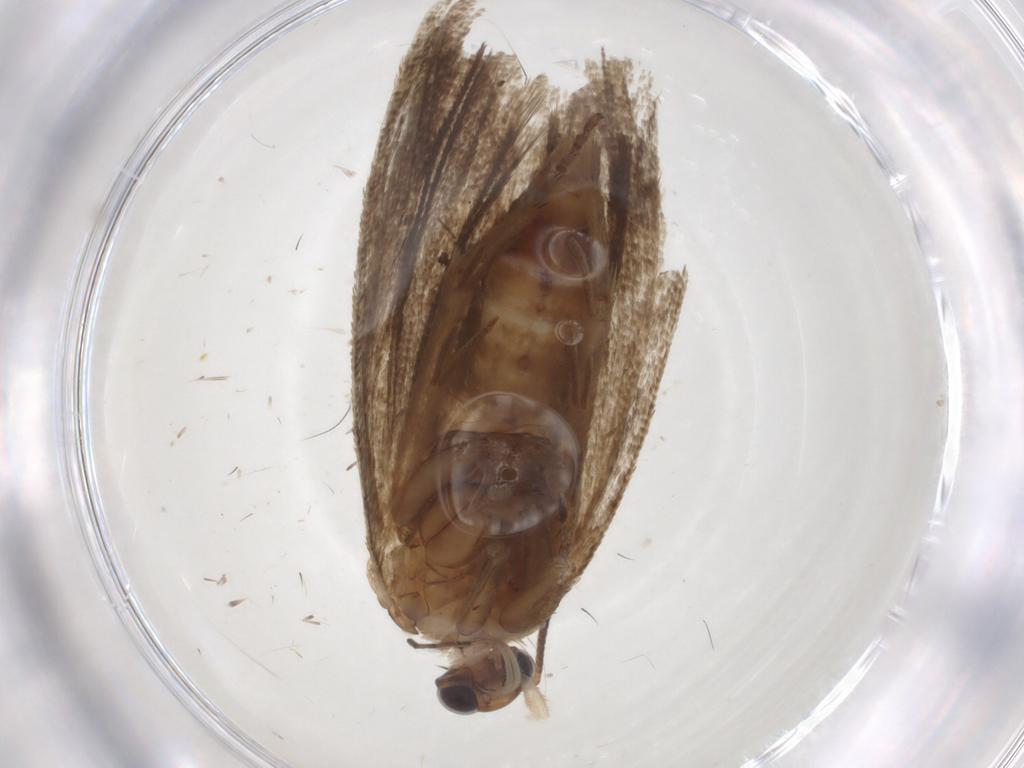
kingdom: Animalia
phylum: Arthropoda
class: Insecta
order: Lepidoptera
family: Tortricidae
